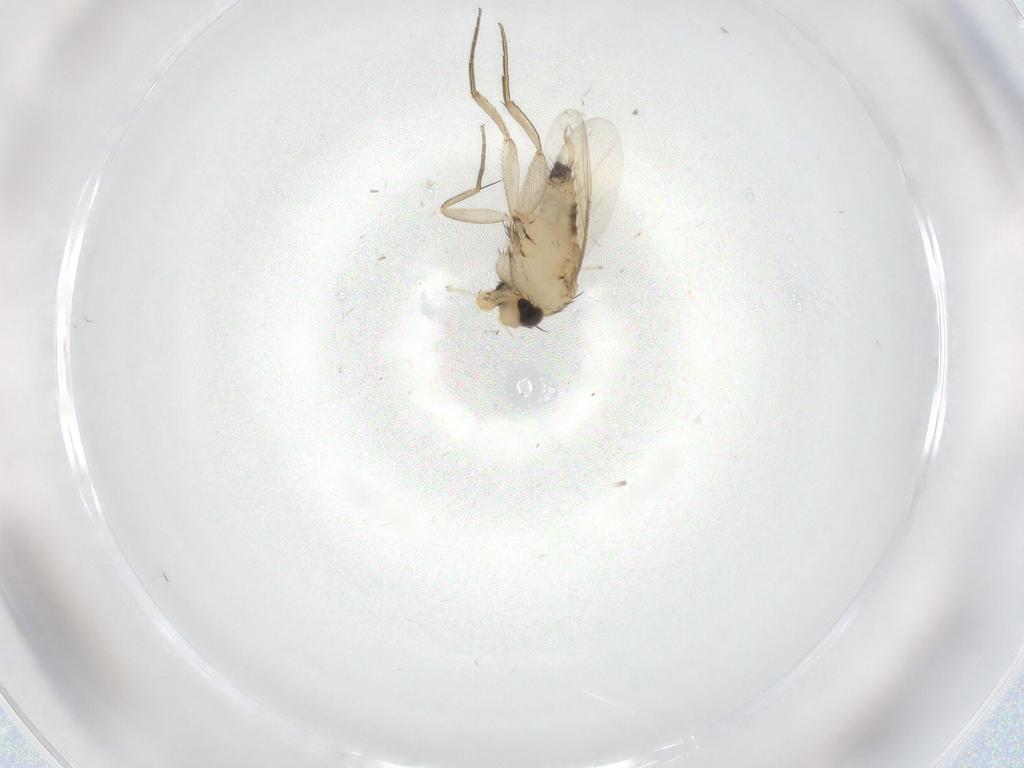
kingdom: Animalia
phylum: Arthropoda
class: Insecta
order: Diptera
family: Phoridae
